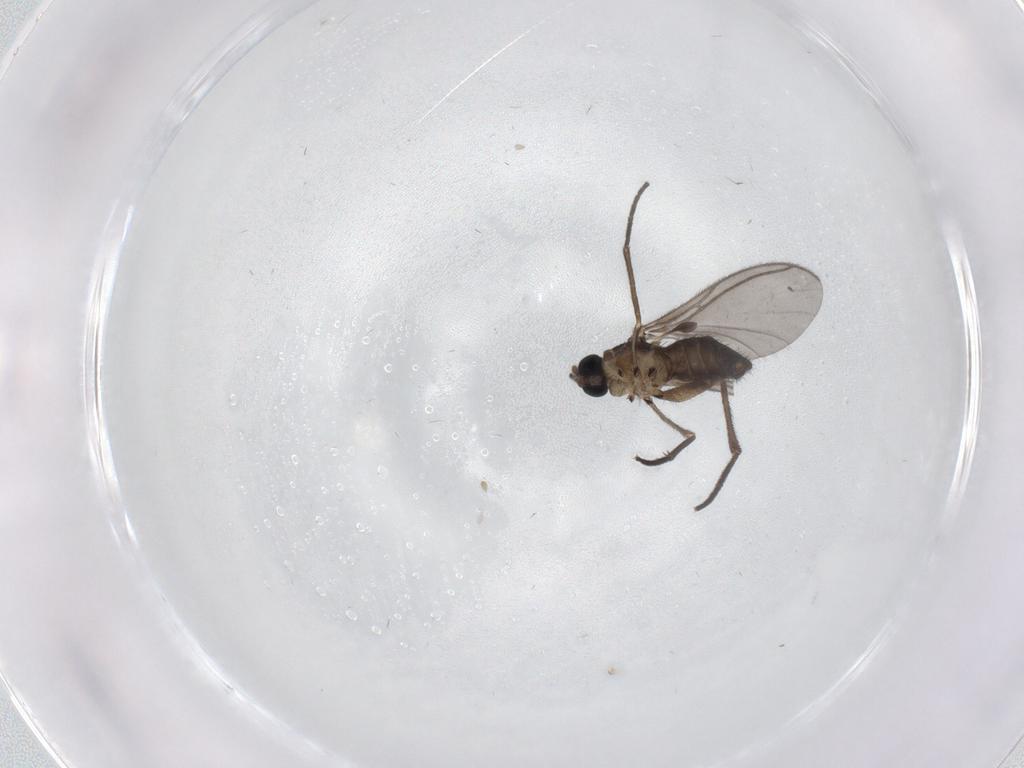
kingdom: Animalia
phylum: Arthropoda
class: Insecta
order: Diptera
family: Sciaridae
